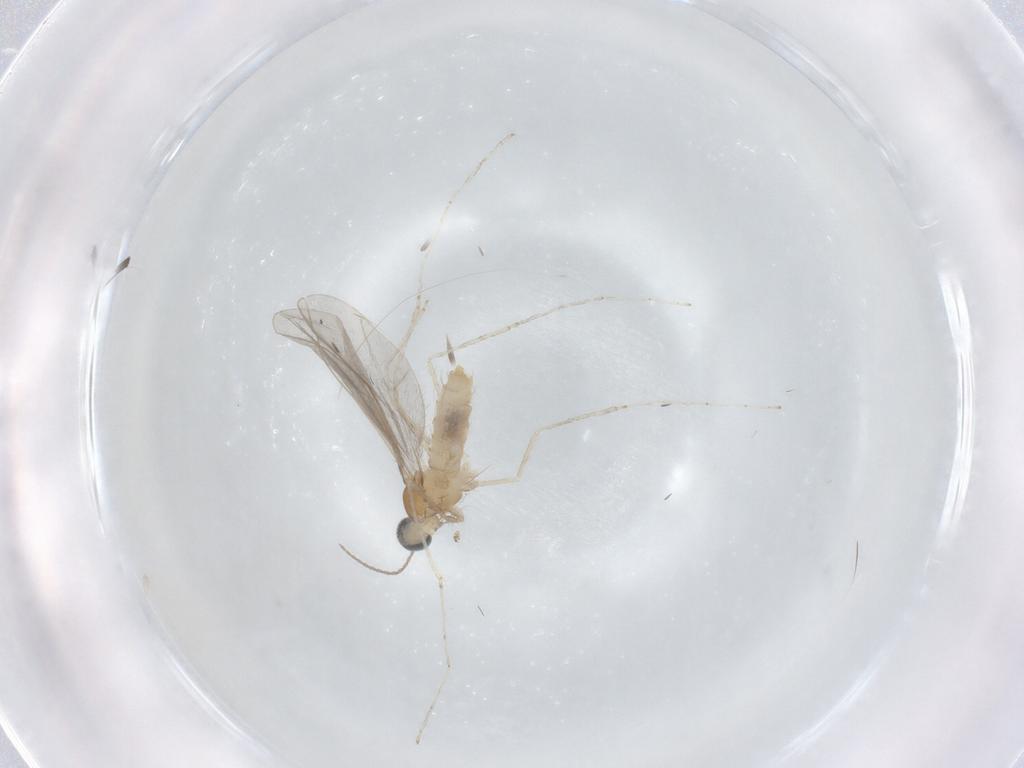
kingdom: Animalia
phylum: Arthropoda
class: Insecta
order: Diptera
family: Cecidomyiidae
